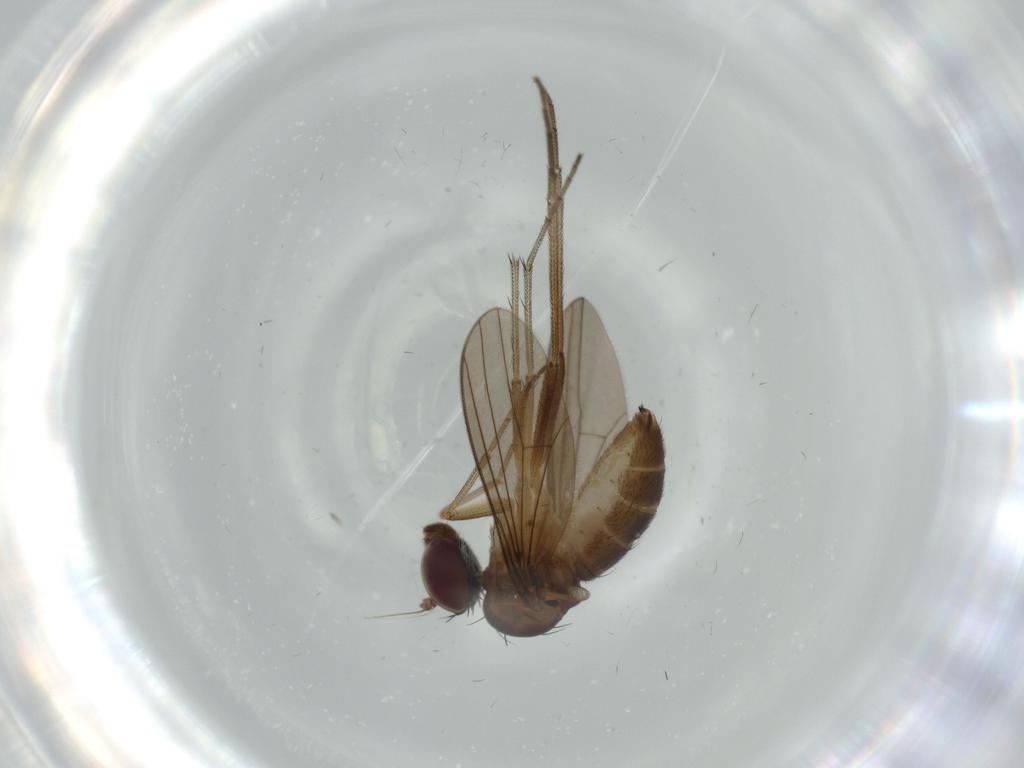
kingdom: Animalia
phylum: Arthropoda
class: Insecta
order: Diptera
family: Dolichopodidae
